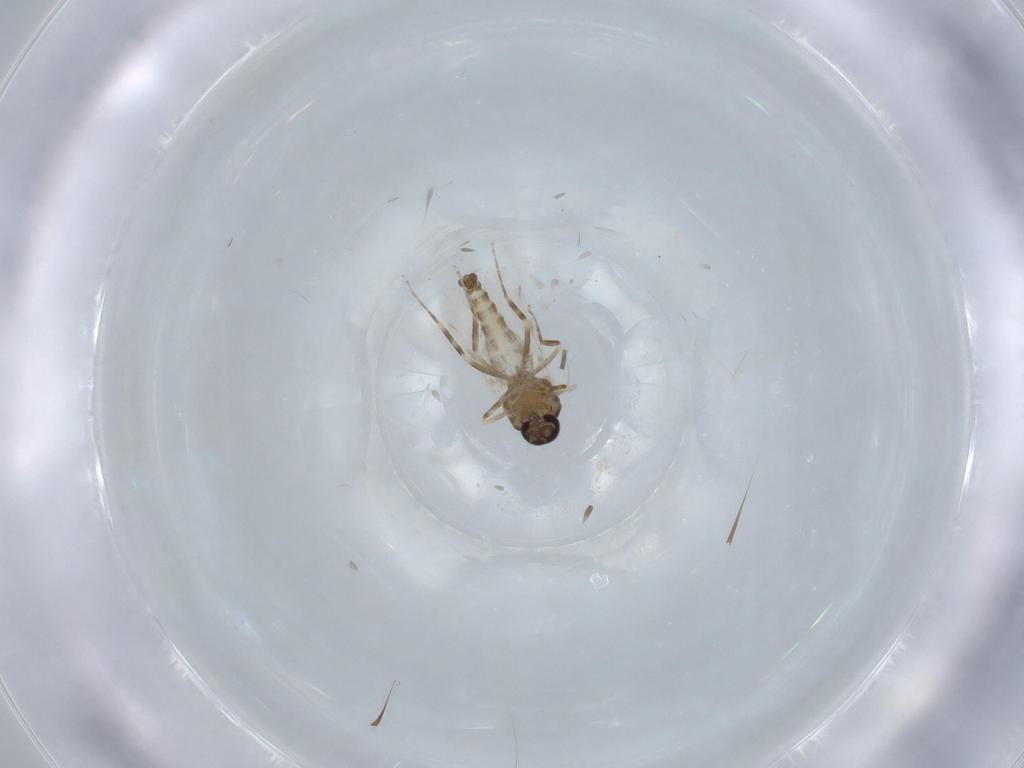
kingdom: Animalia
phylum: Arthropoda
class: Insecta
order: Diptera
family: Ceratopogonidae
